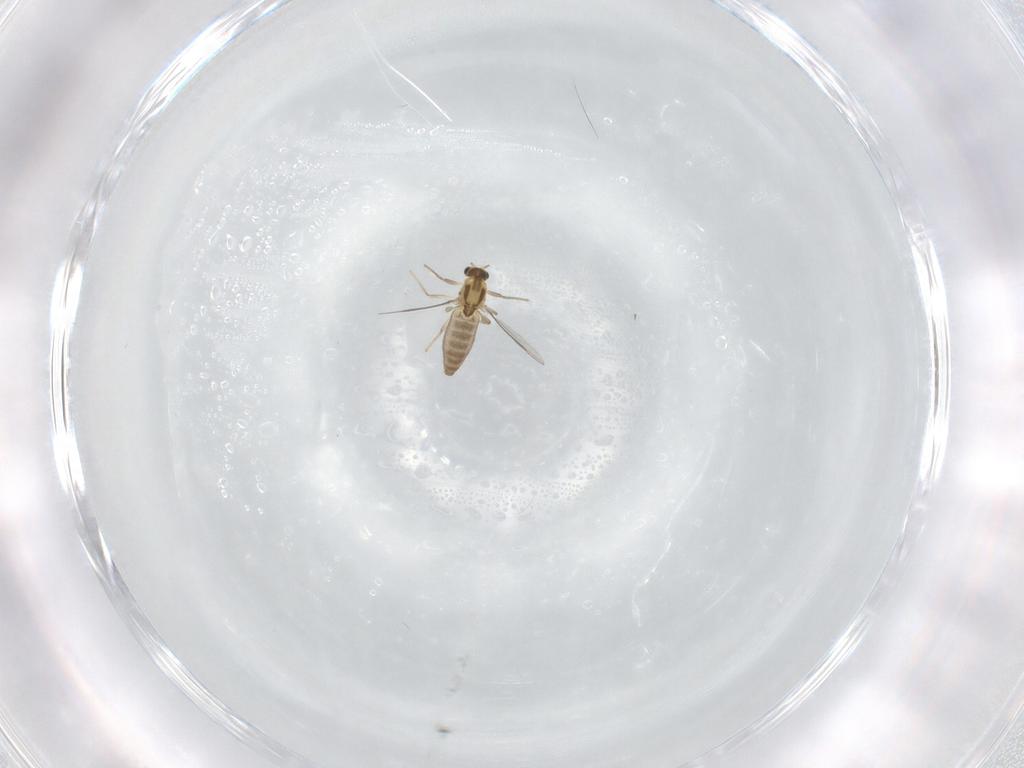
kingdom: Animalia
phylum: Arthropoda
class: Insecta
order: Diptera
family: Chironomidae
